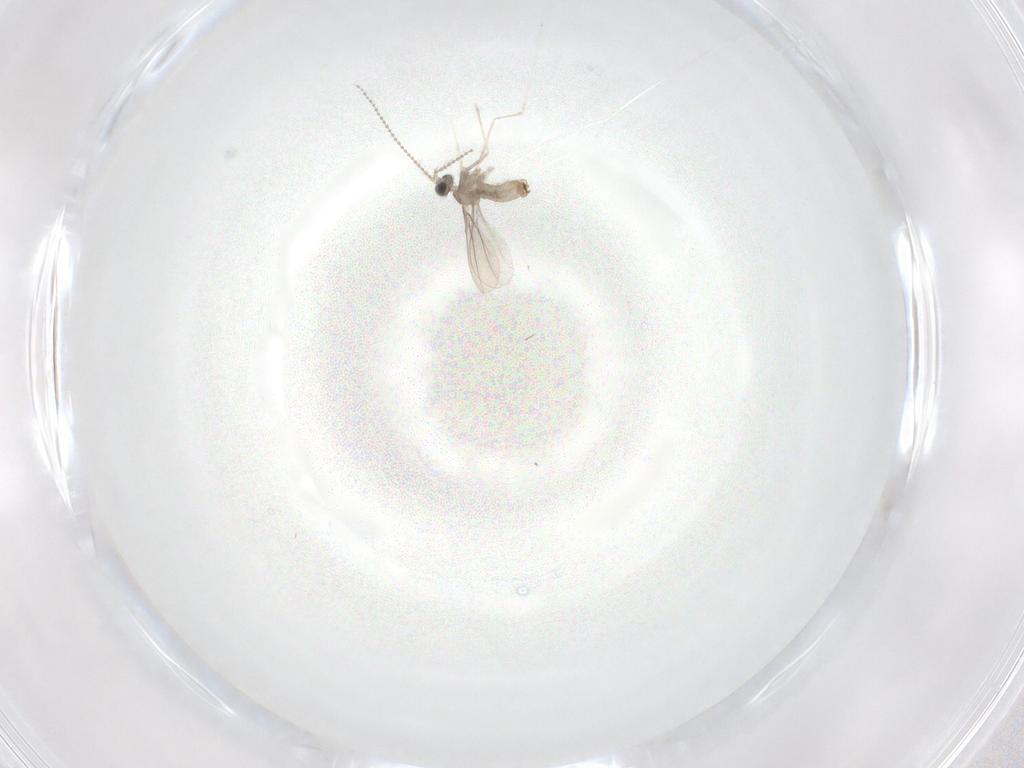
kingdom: Animalia
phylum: Arthropoda
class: Insecta
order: Diptera
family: Cecidomyiidae
